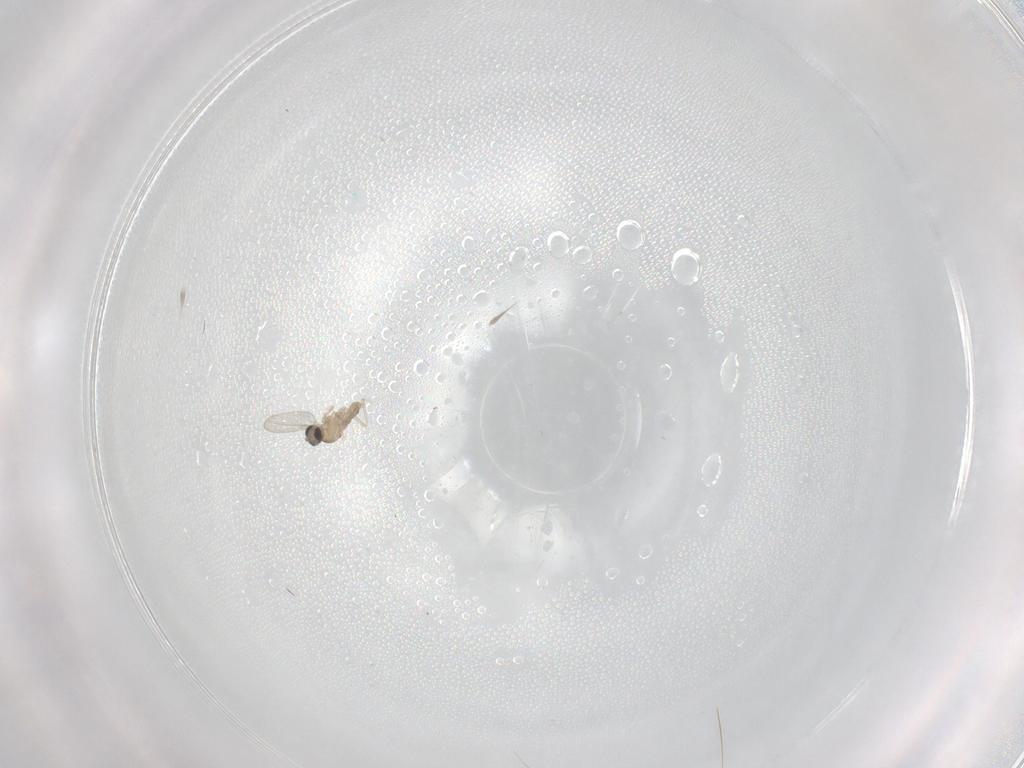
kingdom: Animalia
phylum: Arthropoda
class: Insecta
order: Diptera
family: Cecidomyiidae
